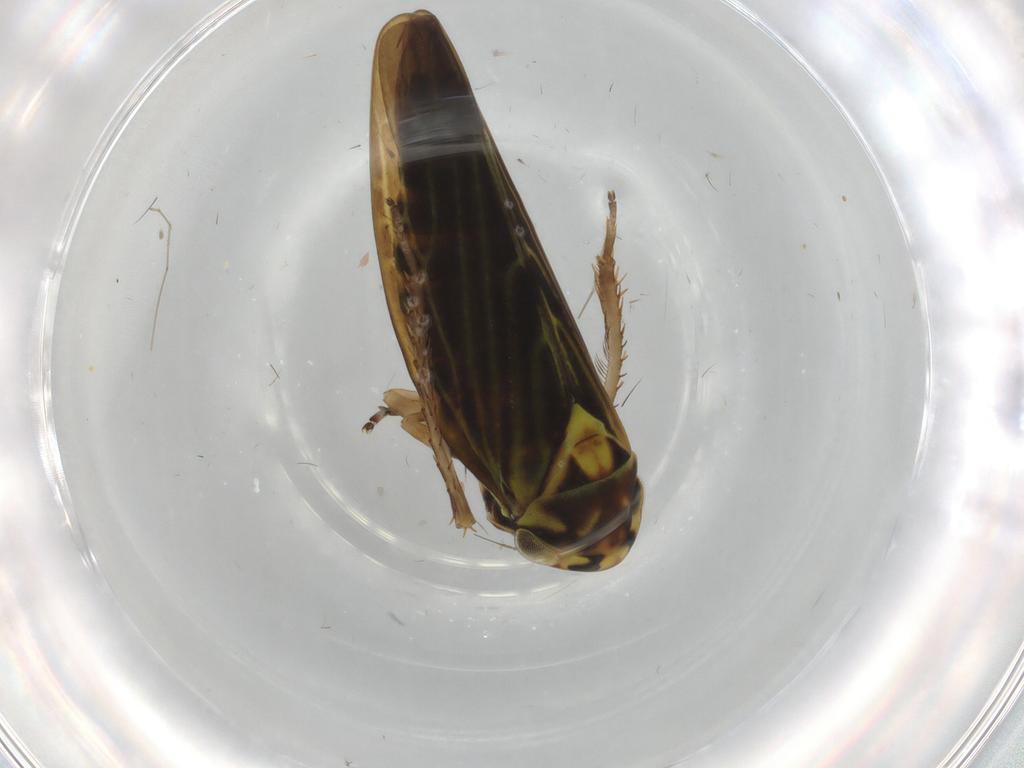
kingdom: Animalia
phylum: Arthropoda
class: Insecta
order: Hemiptera
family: Cicadellidae
